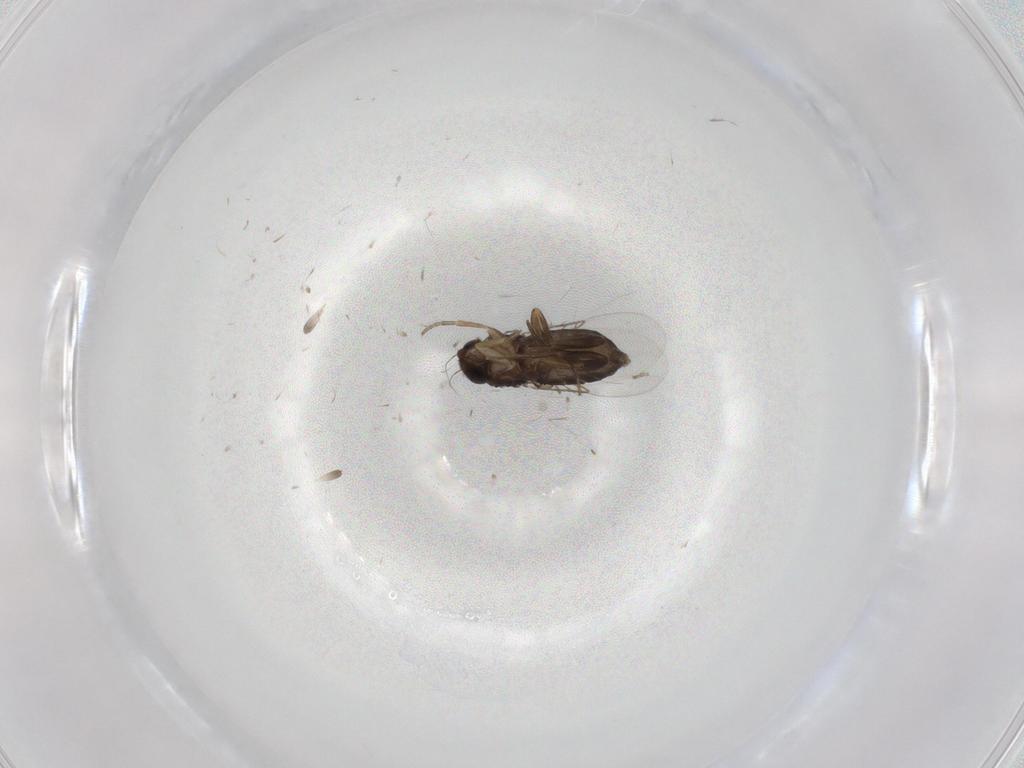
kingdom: Animalia
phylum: Arthropoda
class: Insecta
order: Diptera
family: Phoridae
